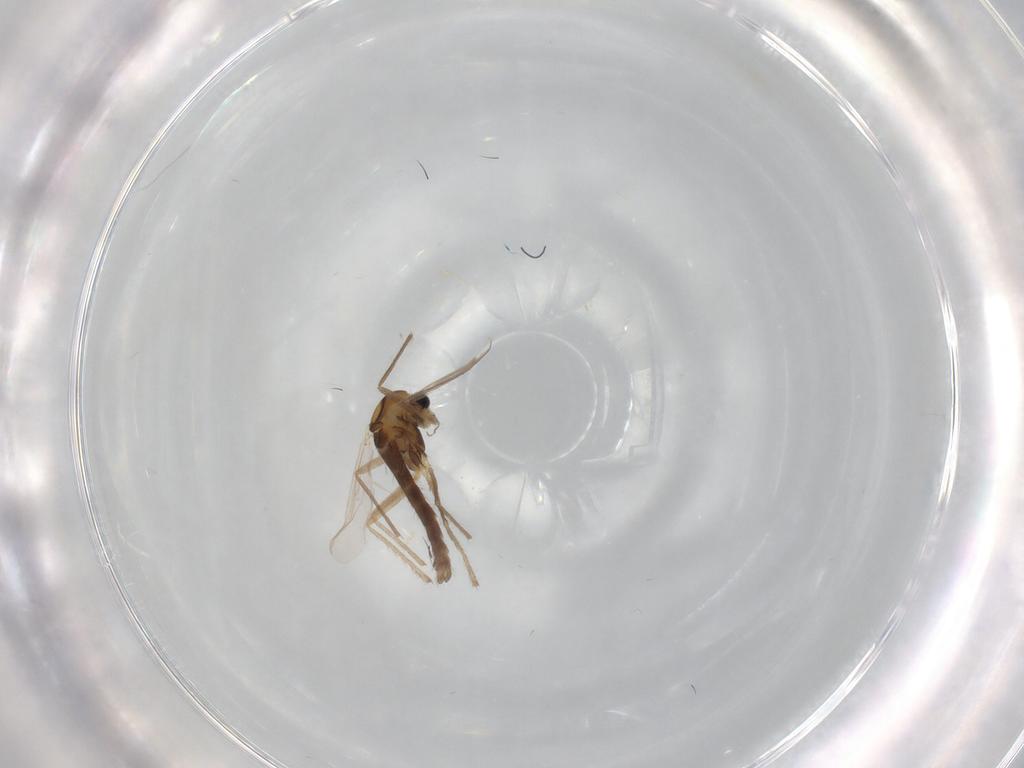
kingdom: Animalia
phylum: Arthropoda
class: Insecta
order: Diptera
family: Chironomidae
